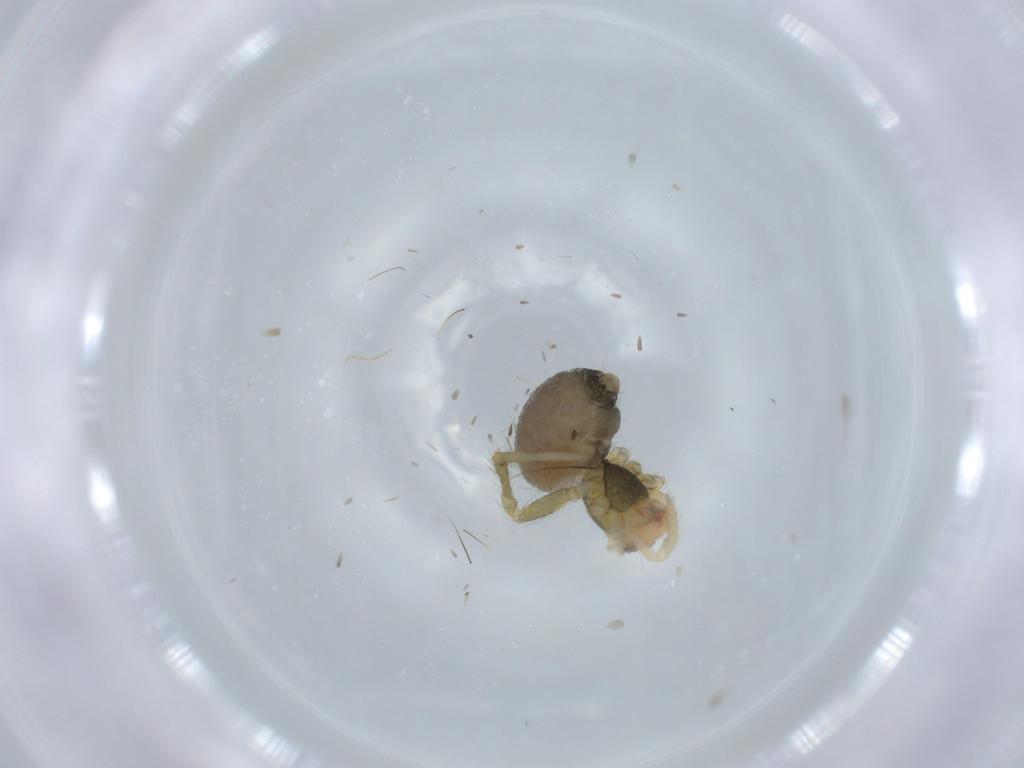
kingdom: Animalia
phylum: Arthropoda
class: Arachnida
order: Araneae
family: Nesticidae
